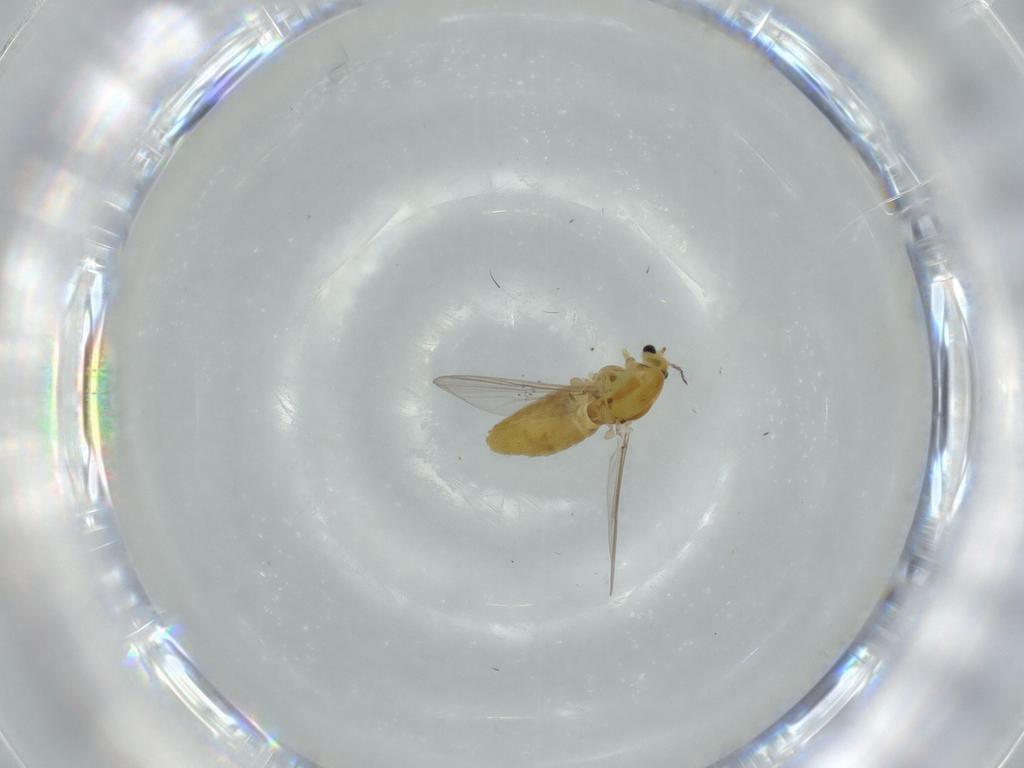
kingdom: Animalia
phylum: Arthropoda
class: Insecta
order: Diptera
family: Chironomidae
